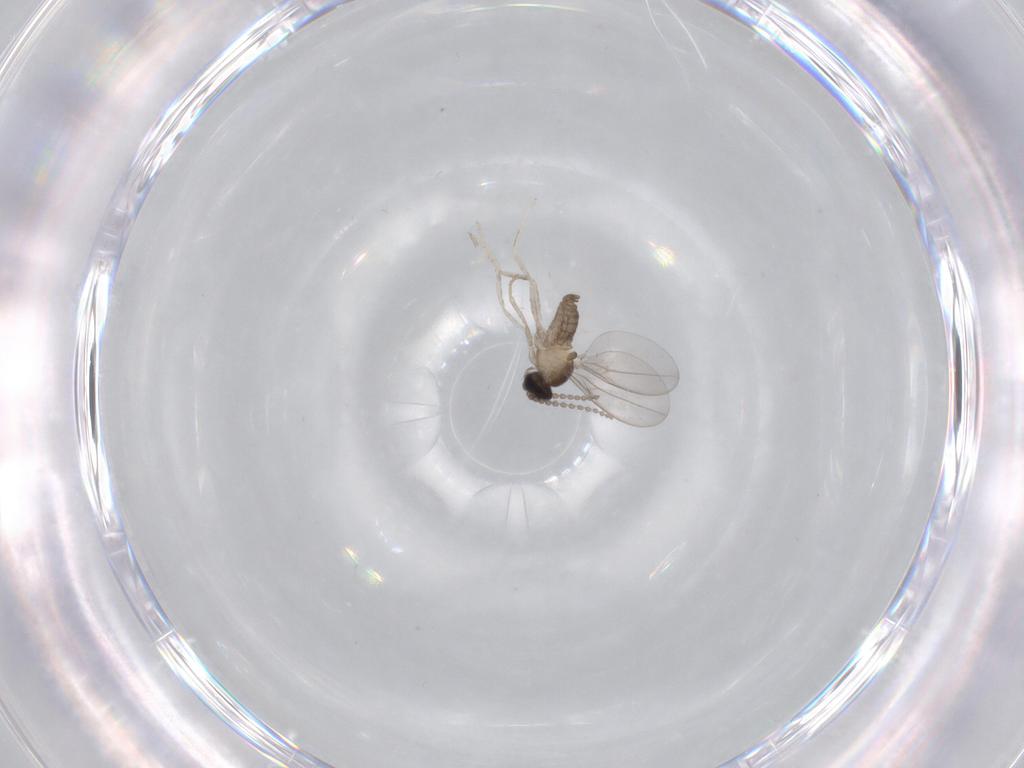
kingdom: Animalia
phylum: Arthropoda
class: Insecta
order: Diptera
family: Cecidomyiidae
